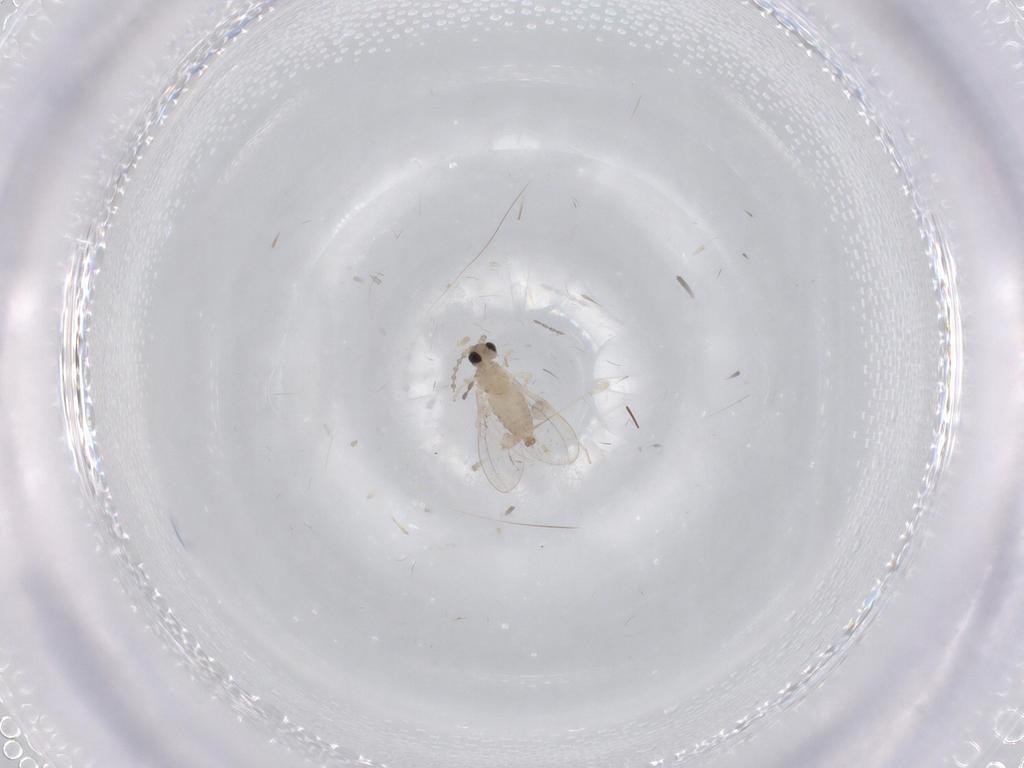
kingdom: Animalia
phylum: Arthropoda
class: Insecta
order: Diptera
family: Cecidomyiidae
